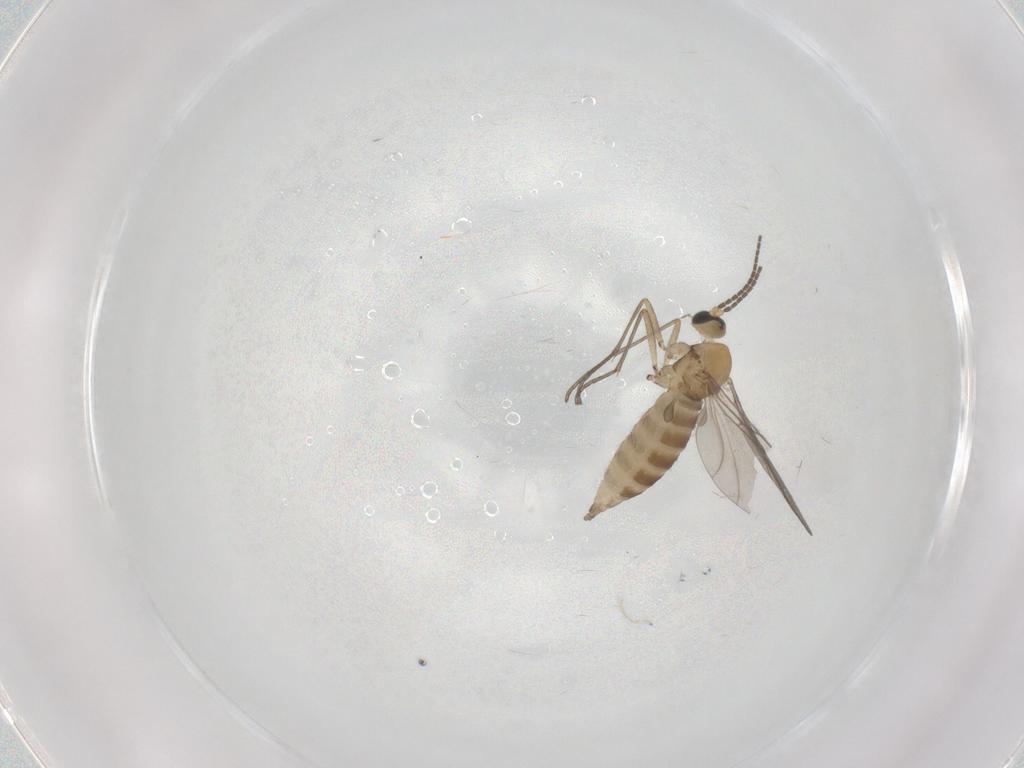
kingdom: Animalia
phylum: Arthropoda
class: Insecta
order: Diptera
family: Sciaridae
